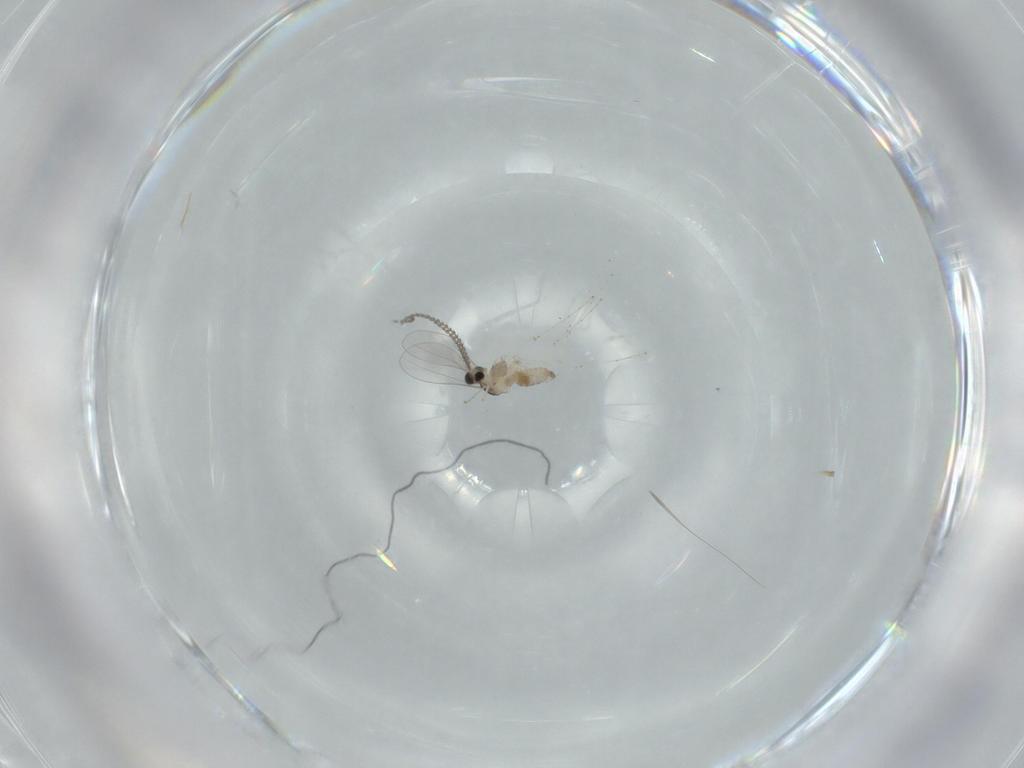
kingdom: Animalia
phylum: Arthropoda
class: Insecta
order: Diptera
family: Cecidomyiidae
